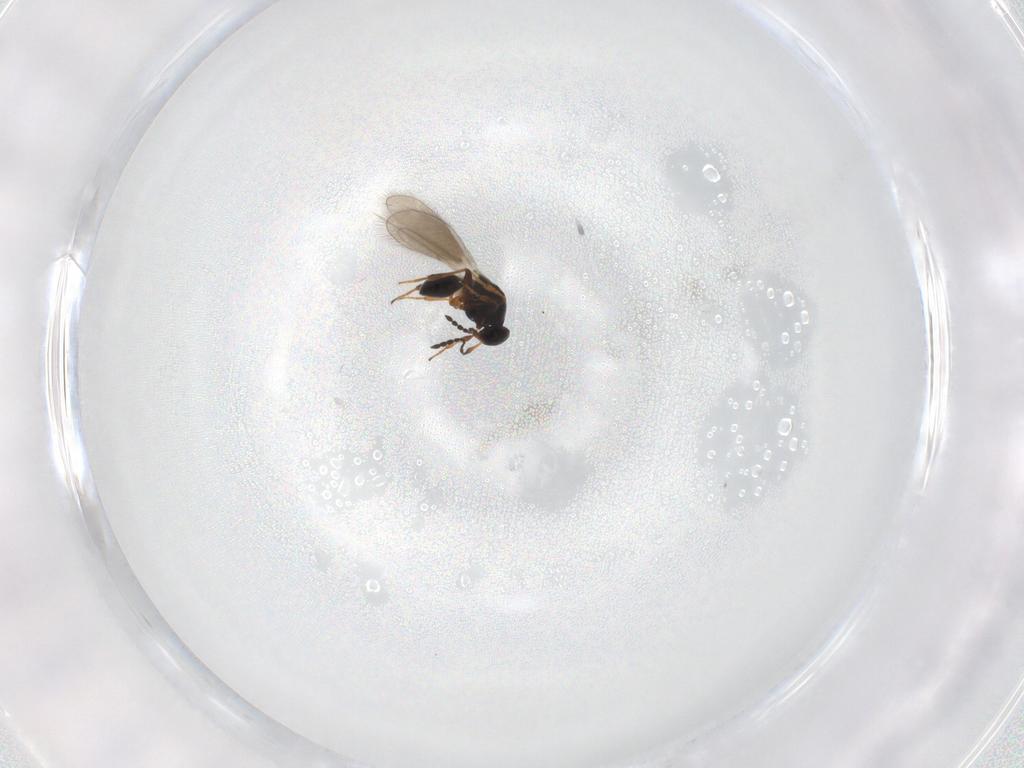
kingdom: Animalia
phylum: Arthropoda
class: Insecta
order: Hymenoptera
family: Platygastridae
